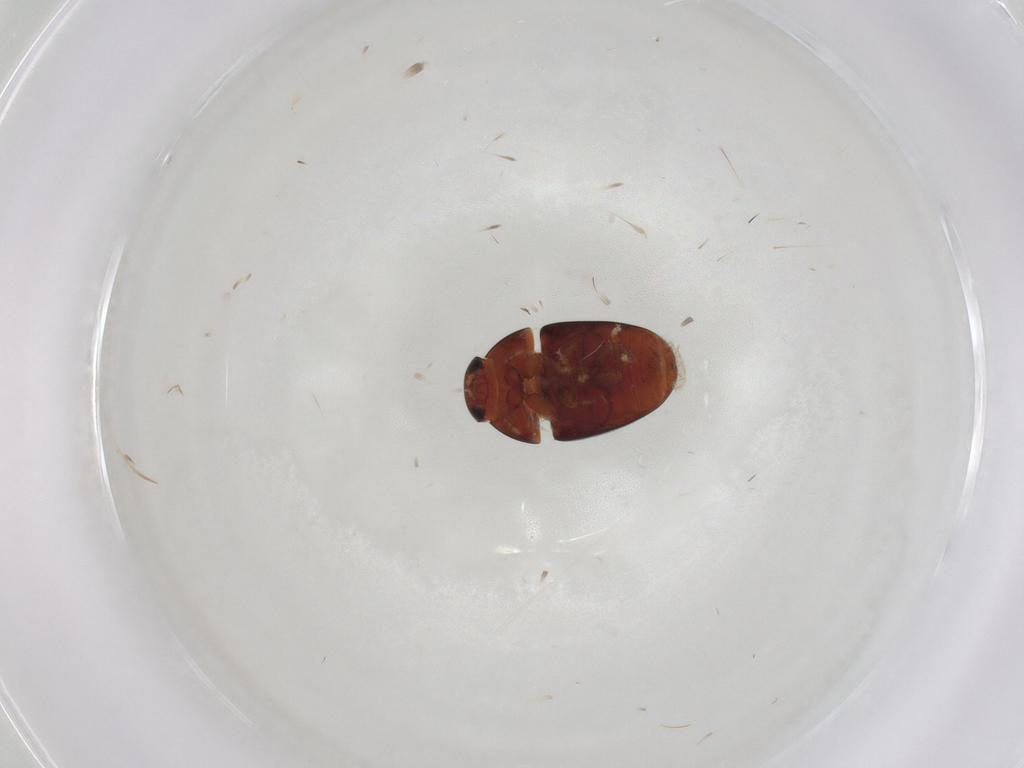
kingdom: Animalia
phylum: Arthropoda
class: Insecta
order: Coleoptera
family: Phalacridae
